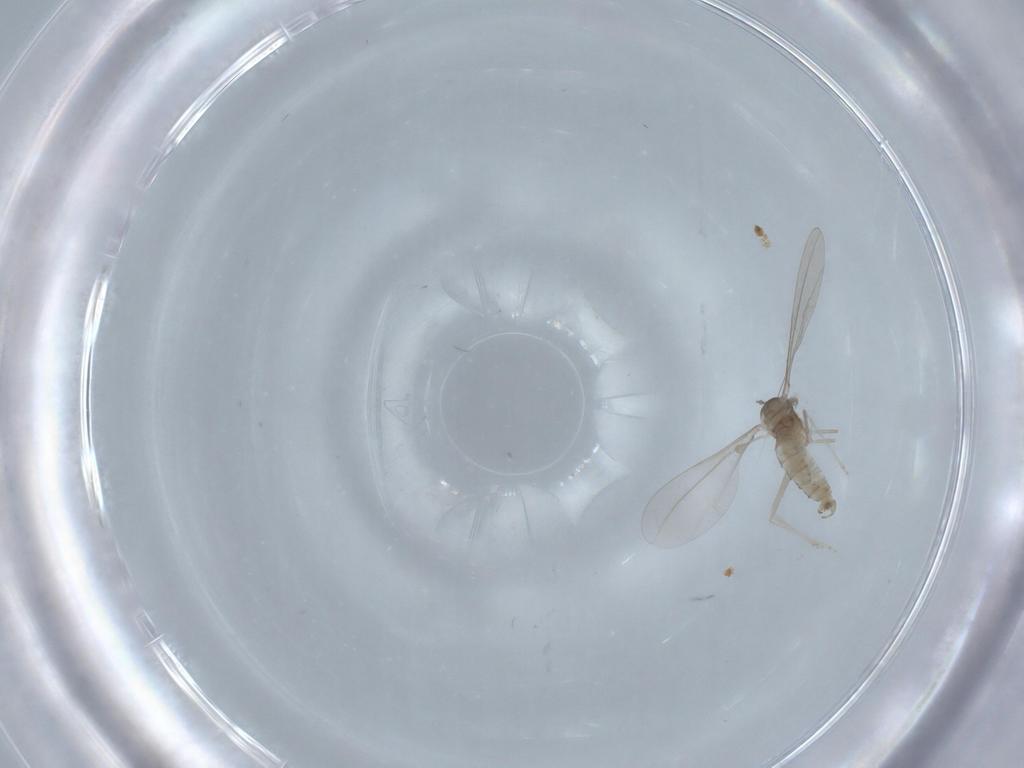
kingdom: Animalia
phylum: Arthropoda
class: Insecta
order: Diptera
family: Cecidomyiidae
